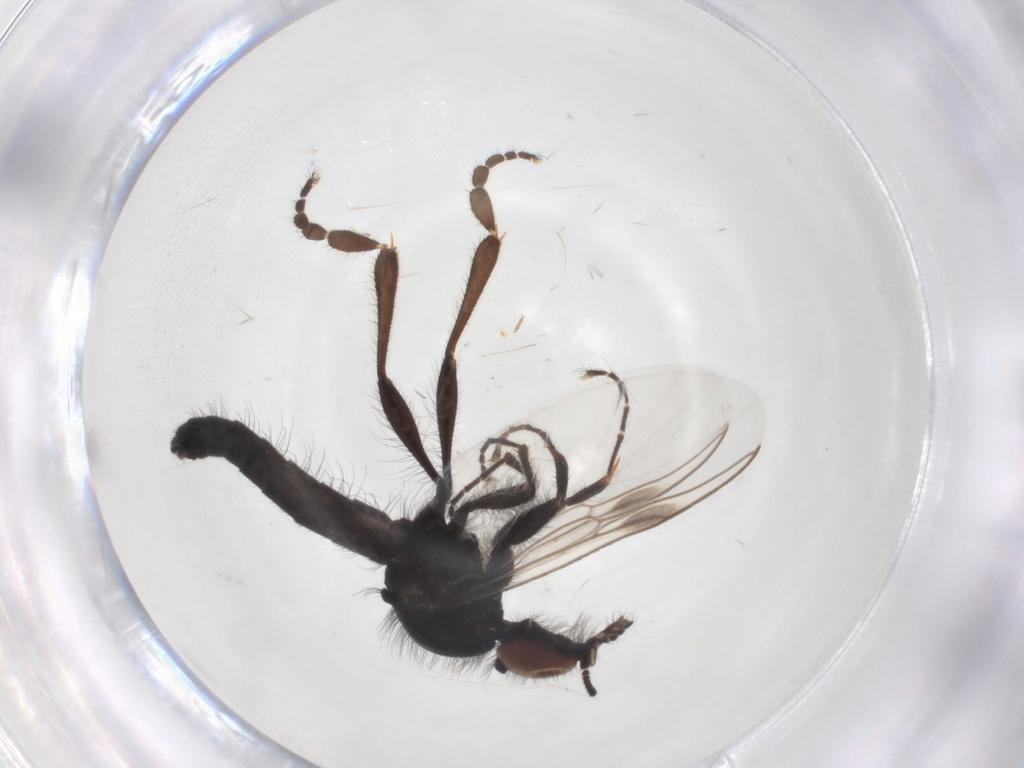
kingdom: Animalia
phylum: Arthropoda
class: Insecta
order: Diptera
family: Bibionidae
